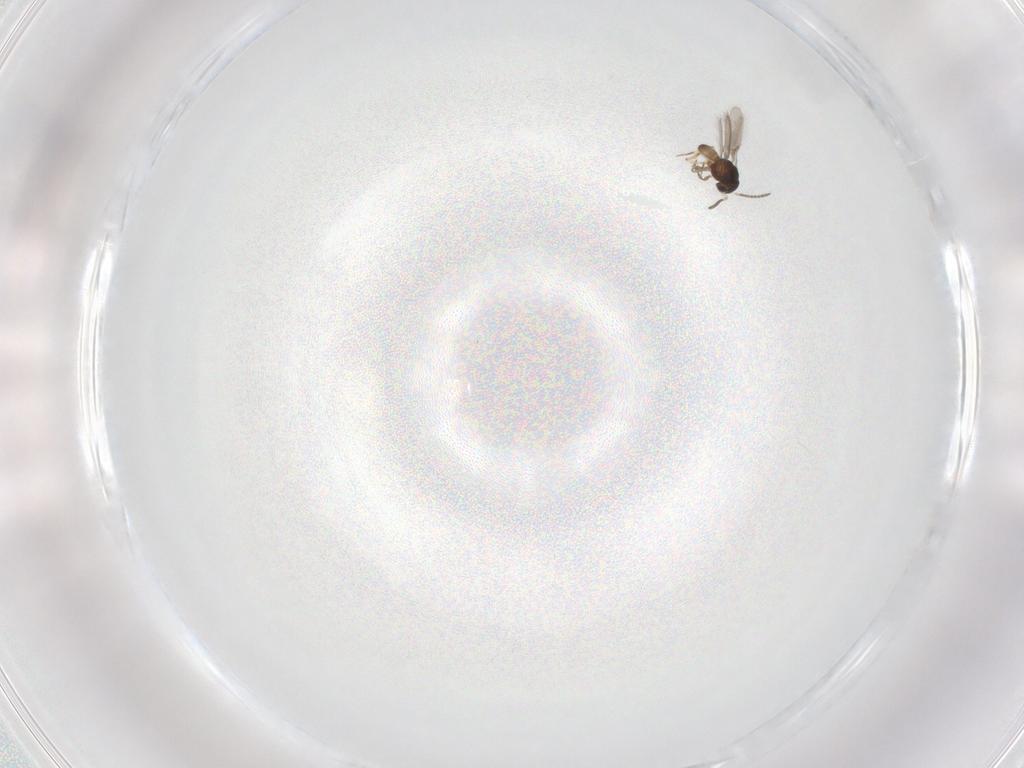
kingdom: Animalia
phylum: Arthropoda
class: Insecta
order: Hymenoptera
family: Scelionidae
